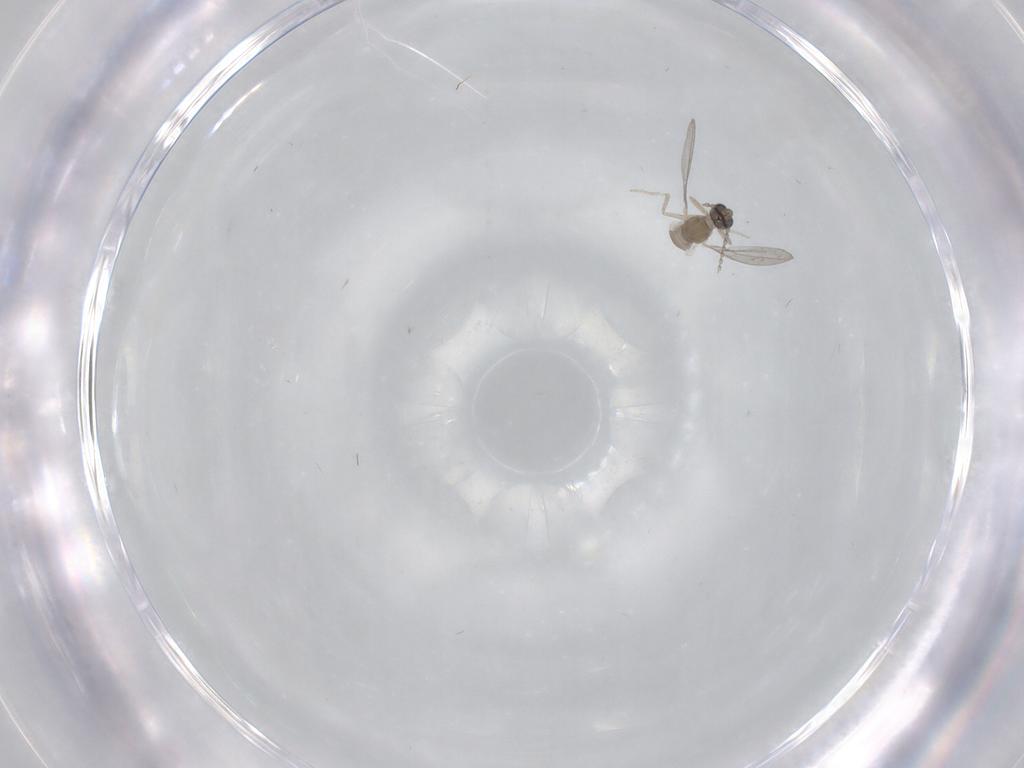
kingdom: Animalia
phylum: Arthropoda
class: Insecta
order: Diptera
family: Cecidomyiidae
